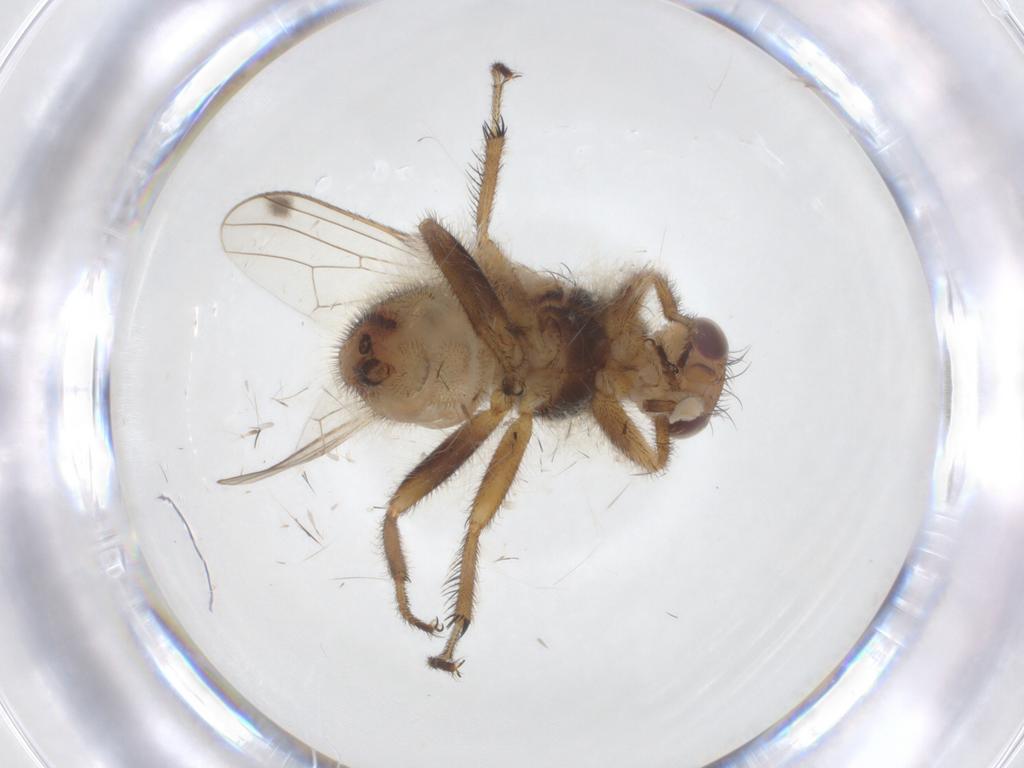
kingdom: Animalia
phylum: Arthropoda
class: Insecta
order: Diptera
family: Richardiidae
